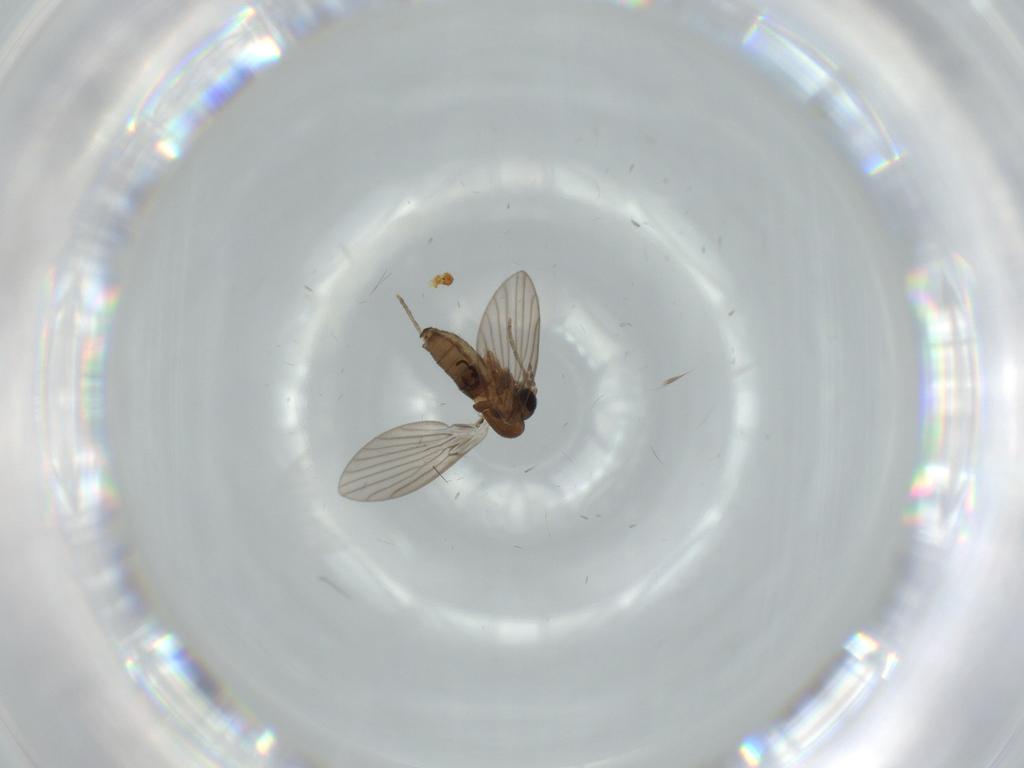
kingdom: Animalia
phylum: Arthropoda
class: Insecta
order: Diptera
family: Psychodidae
